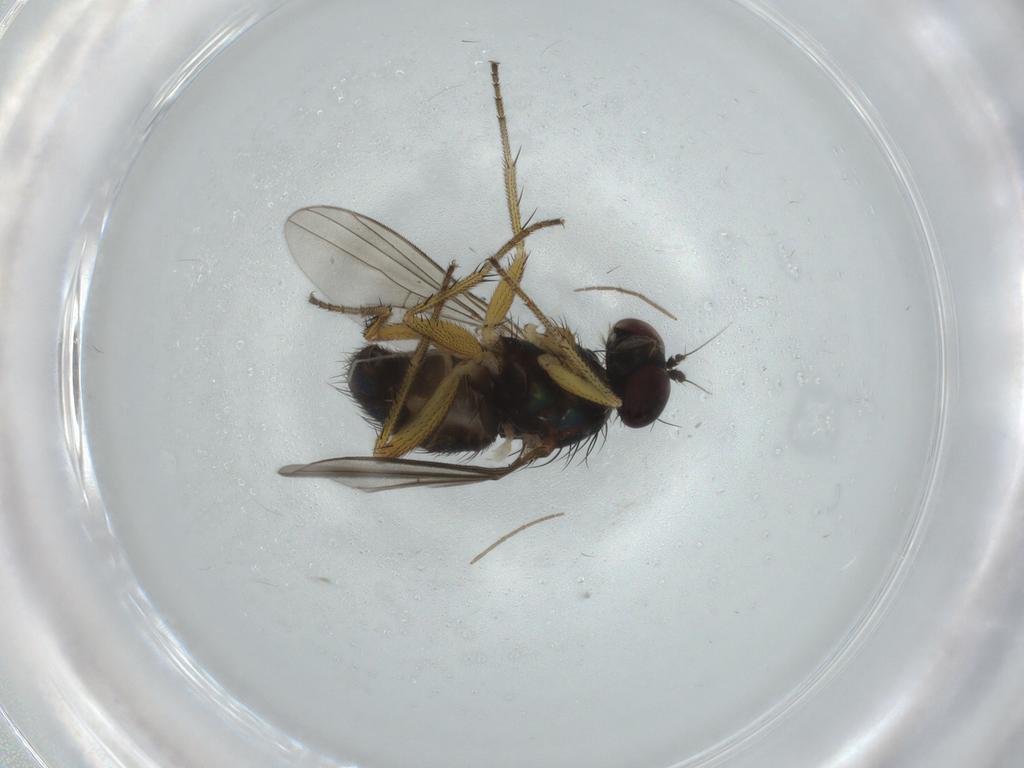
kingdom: Animalia
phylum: Arthropoda
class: Insecta
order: Diptera
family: Dolichopodidae
